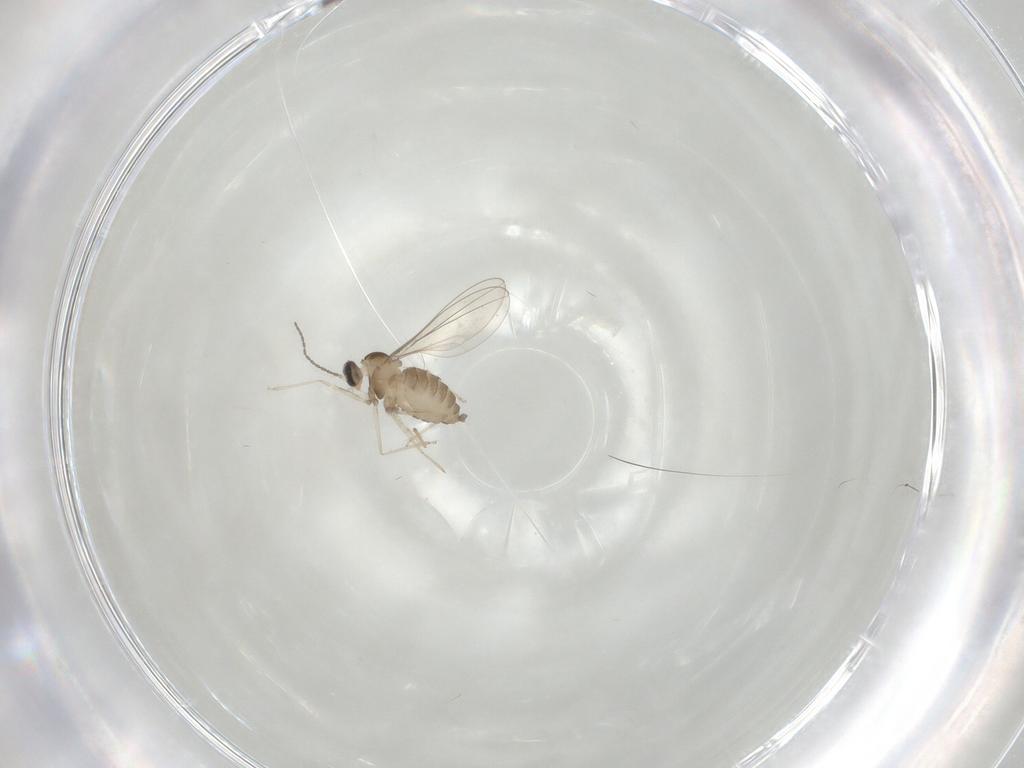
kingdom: Animalia
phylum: Arthropoda
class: Insecta
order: Diptera
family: Cecidomyiidae
